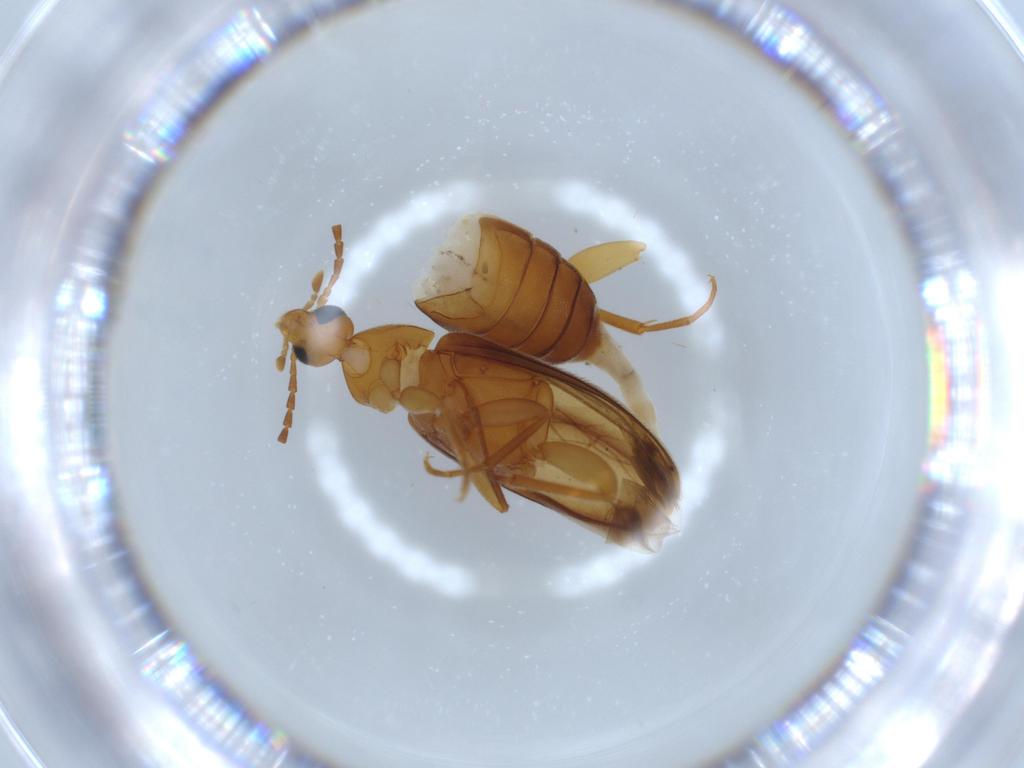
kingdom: Animalia
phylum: Arthropoda
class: Insecta
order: Coleoptera
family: Scraptiidae
